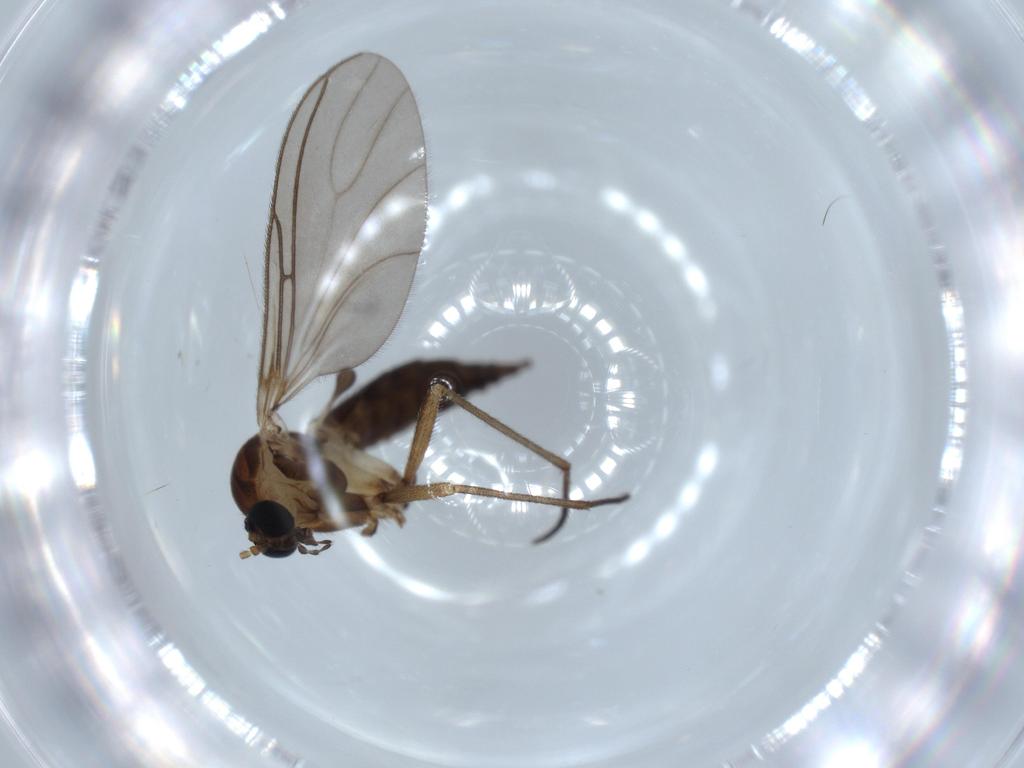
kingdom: Animalia
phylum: Arthropoda
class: Insecta
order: Diptera
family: Sciaridae
